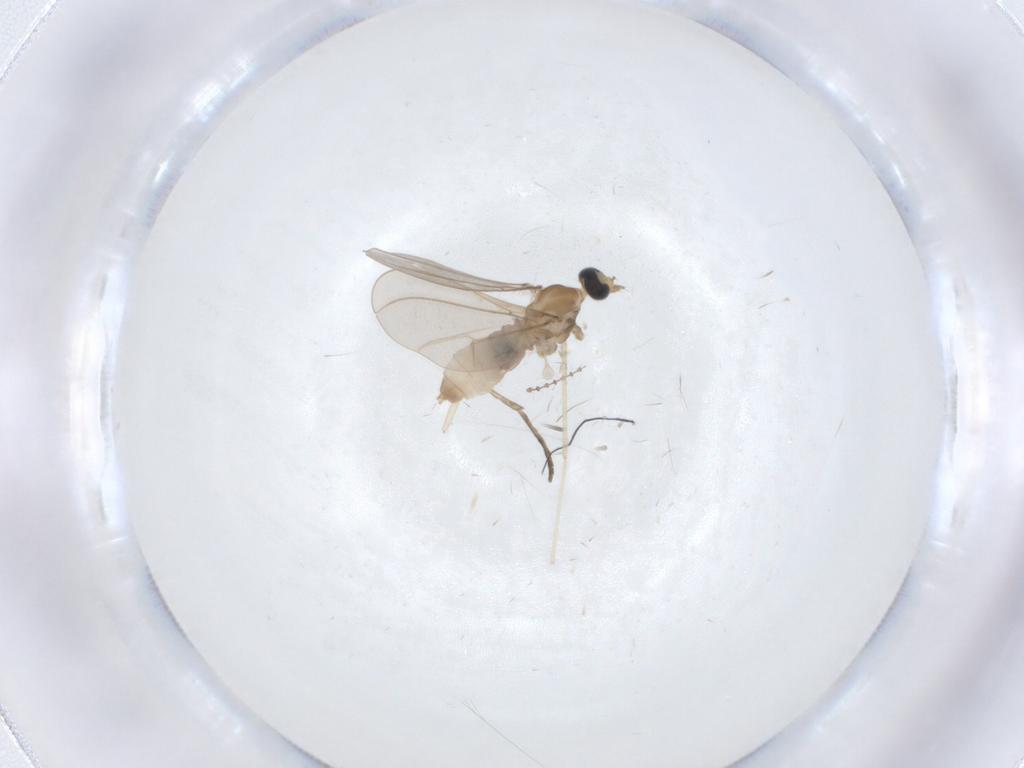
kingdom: Animalia
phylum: Arthropoda
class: Insecta
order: Diptera
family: Cecidomyiidae
